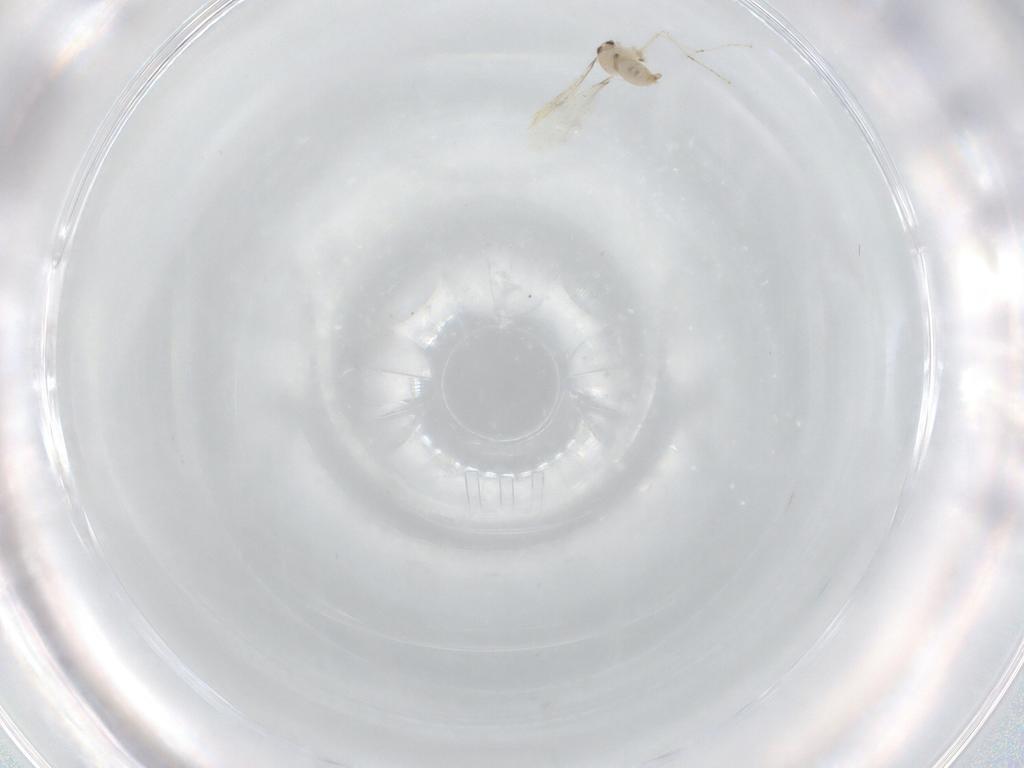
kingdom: Animalia
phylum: Arthropoda
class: Insecta
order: Diptera
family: Cecidomyiidae
